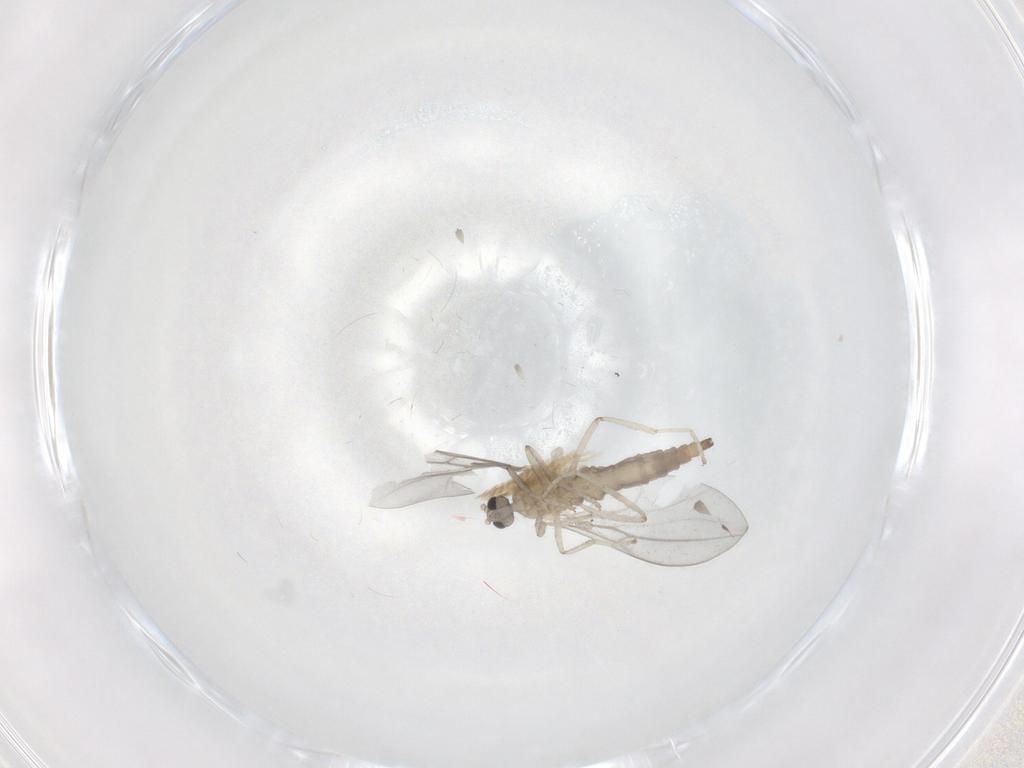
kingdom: Animalia
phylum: Arthropoda
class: Insecta
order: Diptera
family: Cecidomyiidae
